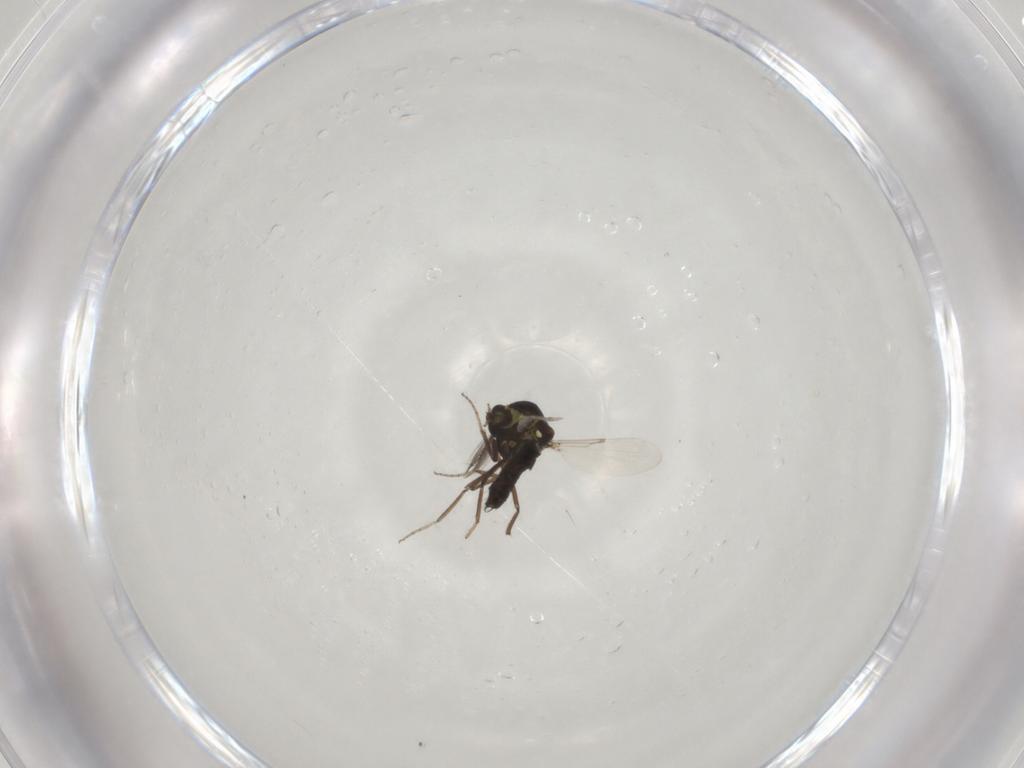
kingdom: Animalia
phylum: Arthropoda
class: Insecta
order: Diptera
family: Ceratopogonidae
